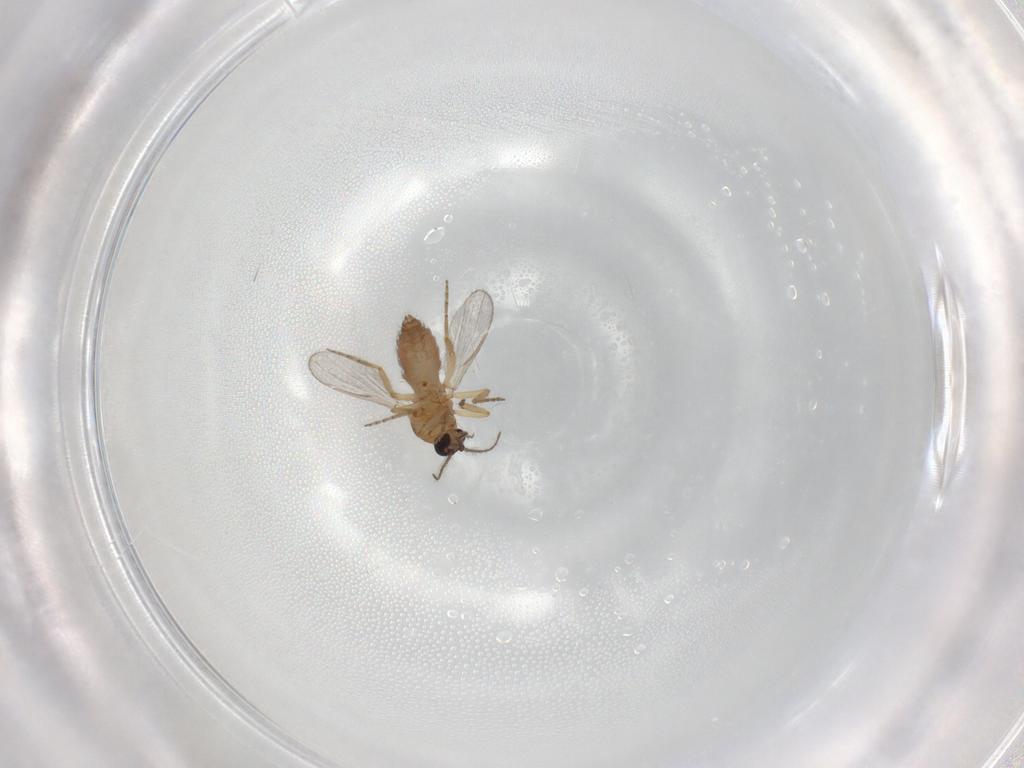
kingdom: Animalia
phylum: Arthropoda
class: Insecta
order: Diptera
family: Ceratopogonidae
